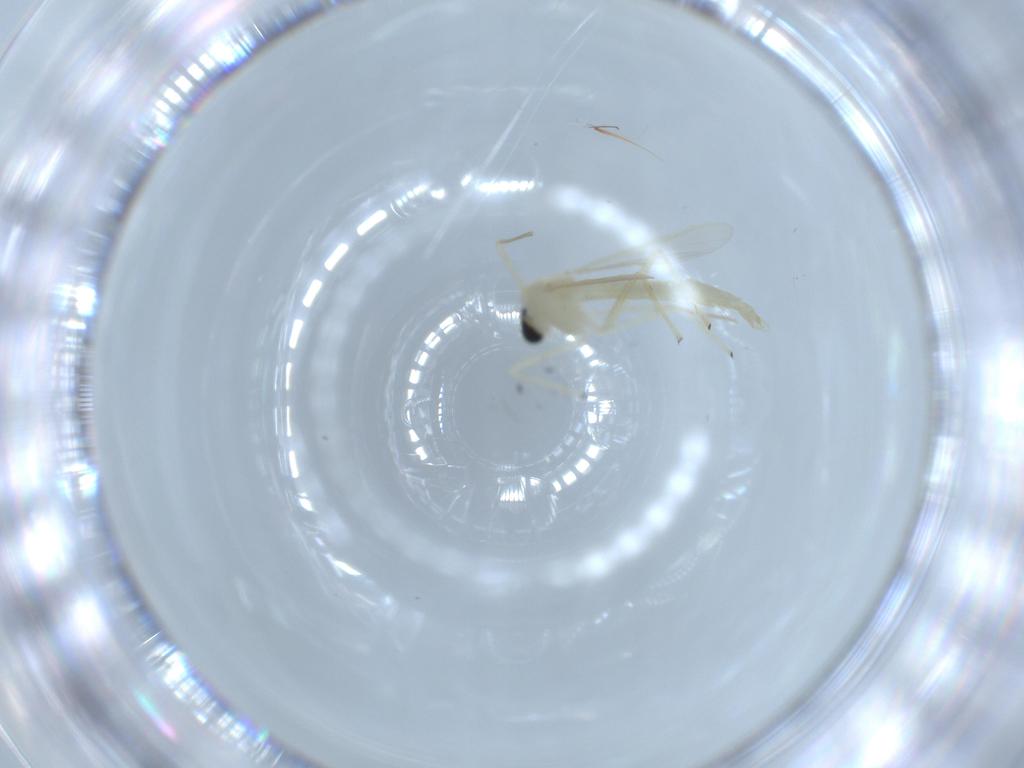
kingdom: Animalia
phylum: Arthropoda
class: Insecta
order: Diptera
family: Chironomidae
